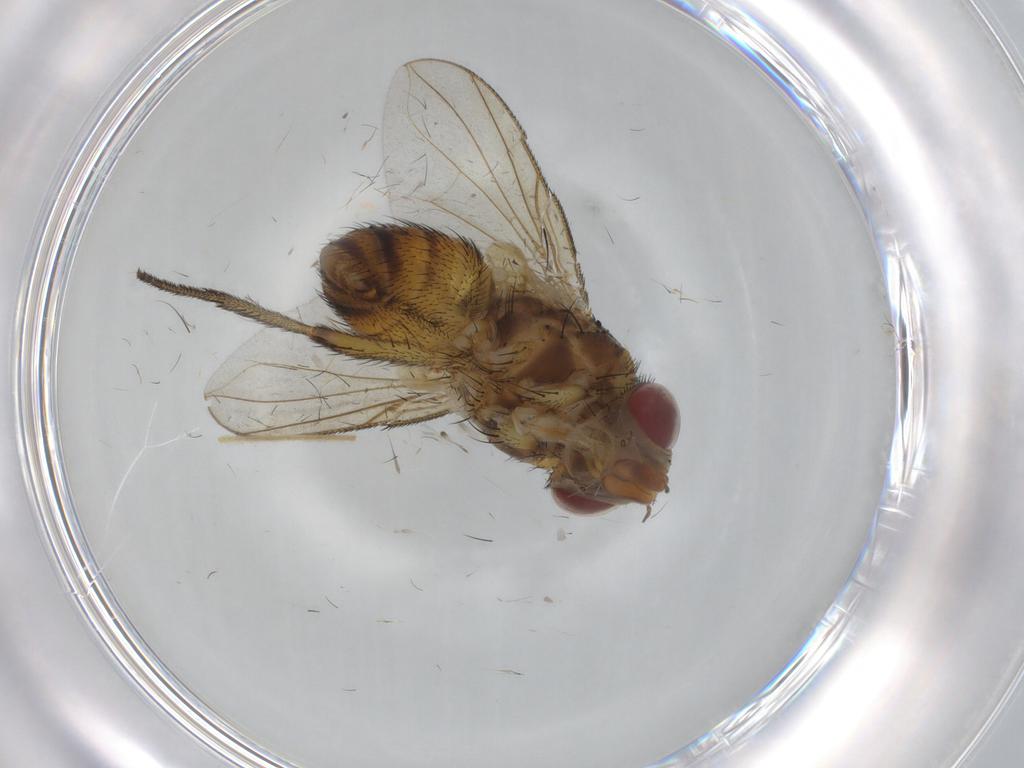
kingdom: Animalia
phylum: Arthropoda
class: Insecta
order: Diptera
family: Tachinidae
